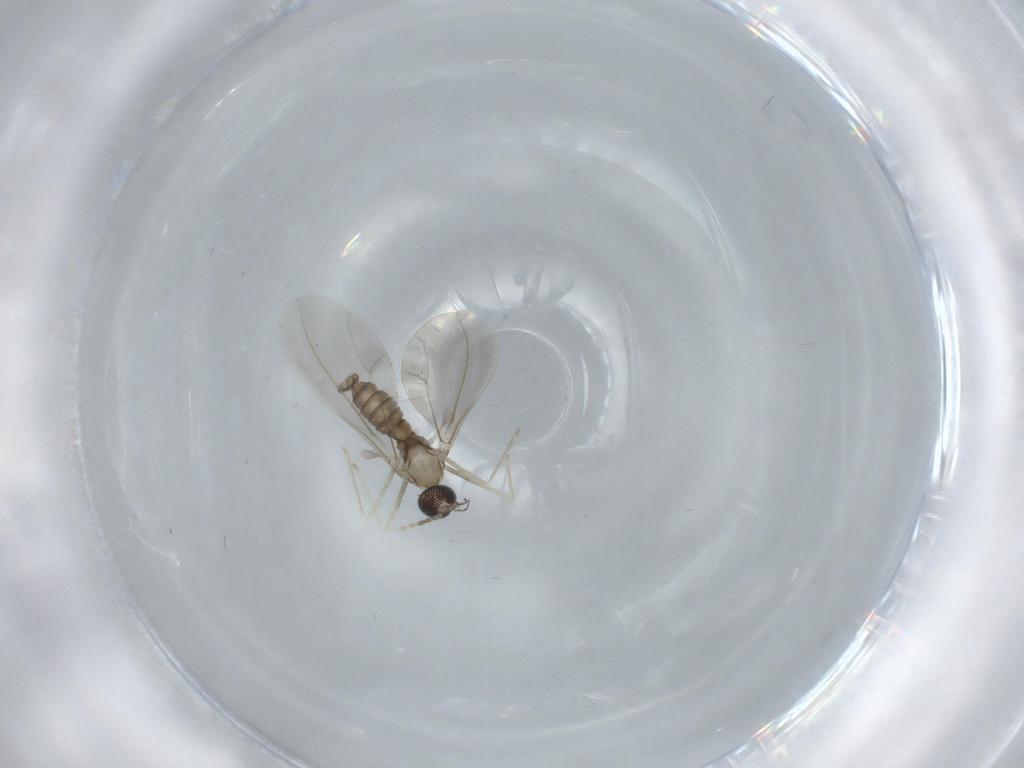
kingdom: Animalia
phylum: Arthropoda
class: Insecta
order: Diptera
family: Cecidomyiidae
